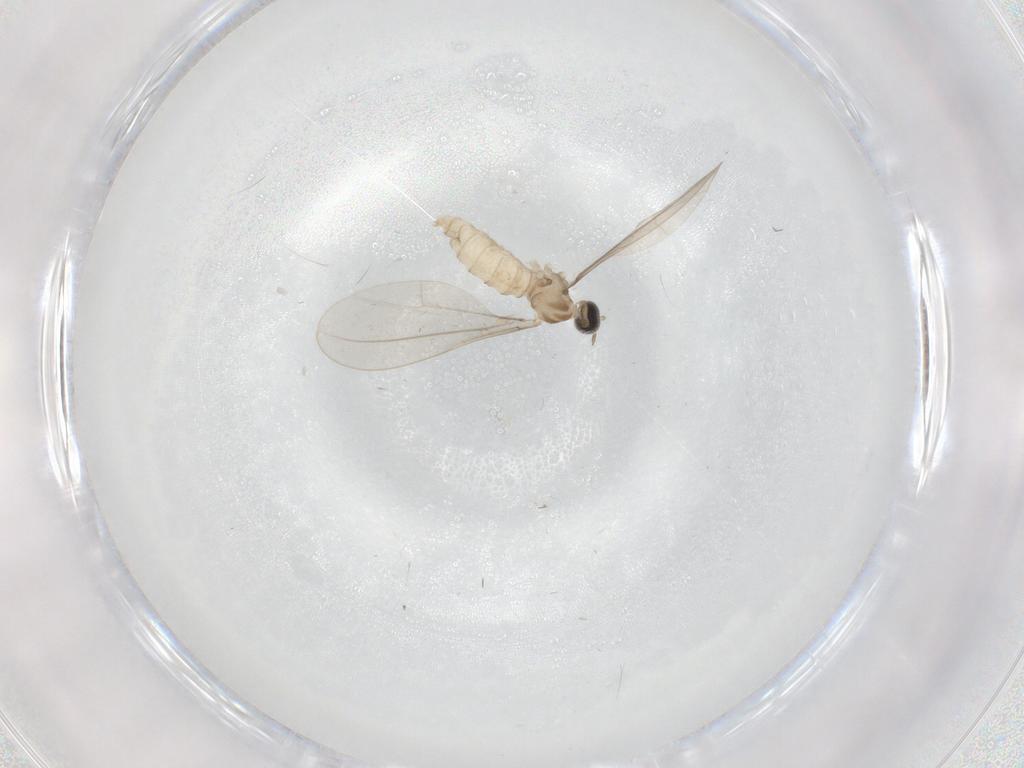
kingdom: Animalia
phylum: Arthropoda
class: Insecta
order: Diptera
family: Cecidomyiidae
